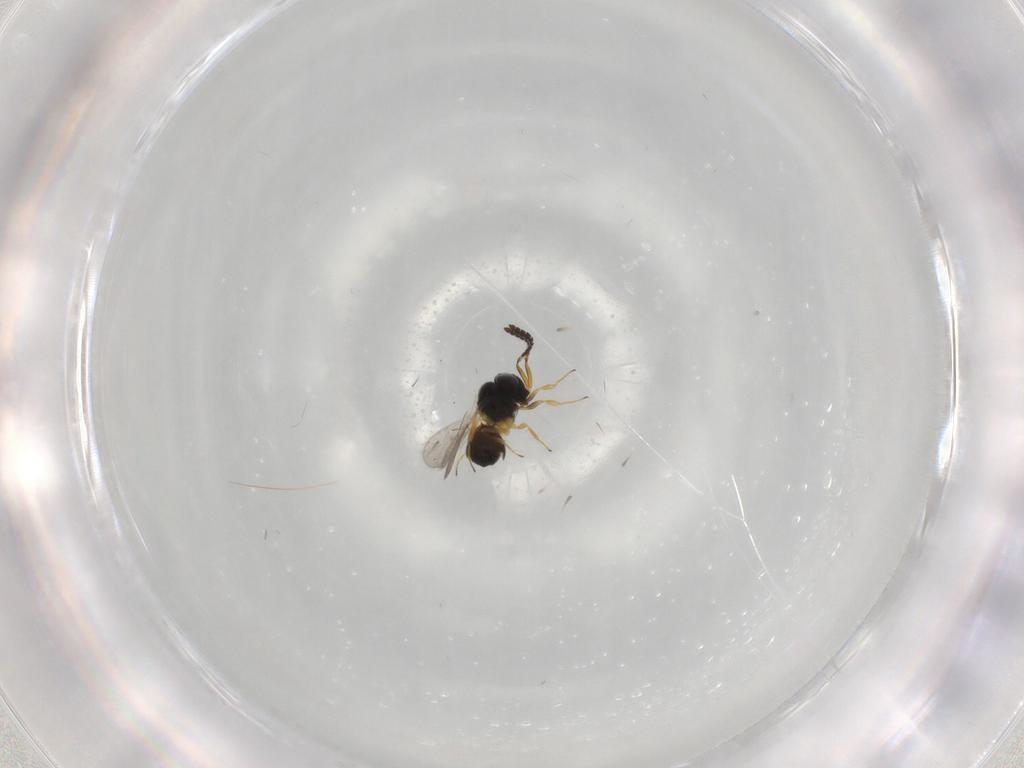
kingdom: Animalia
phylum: Arthropoda
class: Insecta
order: Hymenoptera
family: Scelionidae
